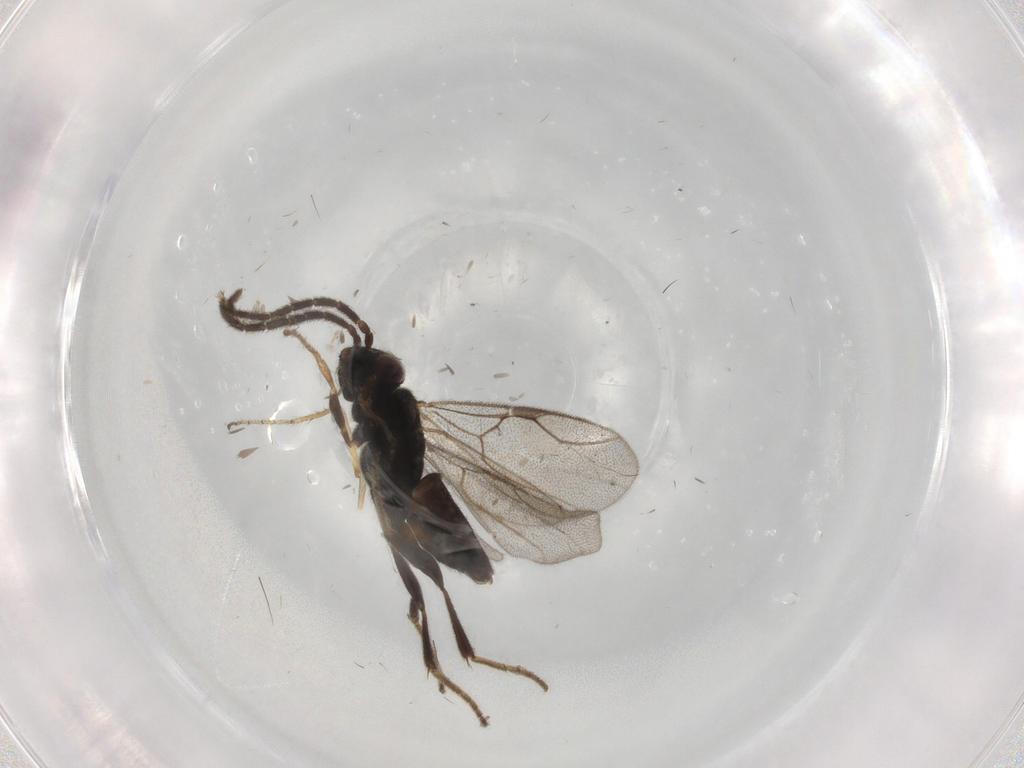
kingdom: Animalia
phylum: Arthropoda
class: Insecta
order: Hymenoptera
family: Dryinidae
